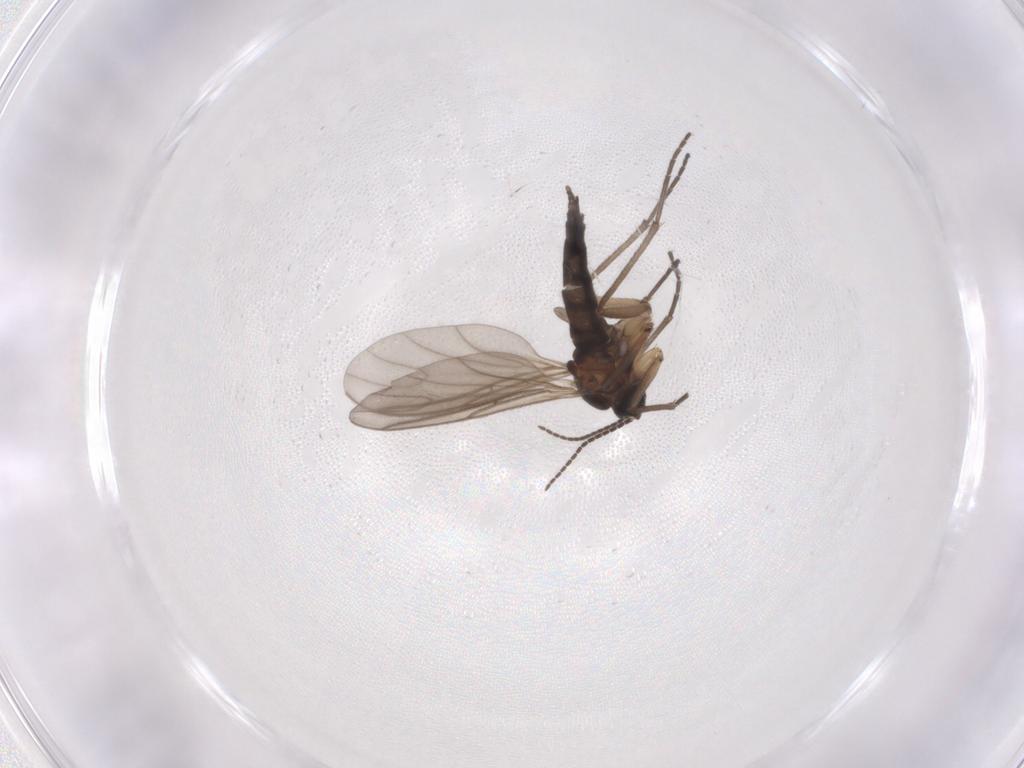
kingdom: Animalia
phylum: Arthropoda
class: Insecta
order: Diptera
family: Sciaridae
